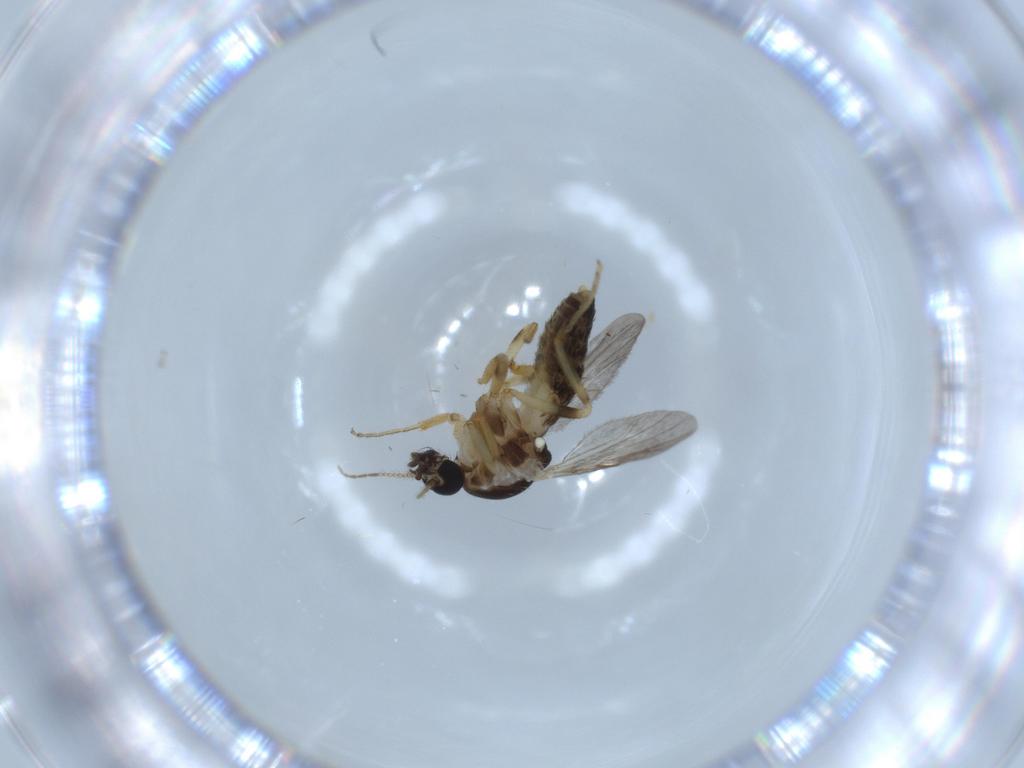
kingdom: Animalia
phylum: Arthropoda
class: Insecta
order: Diptera
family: Ceratopogonidae
